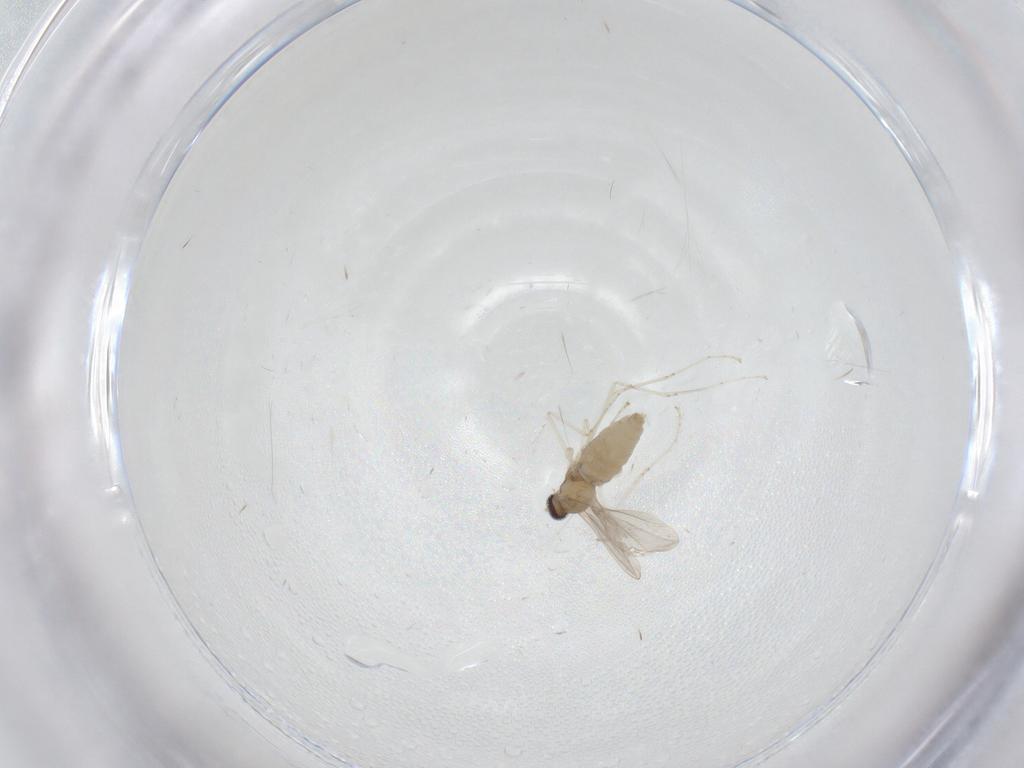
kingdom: Animalia
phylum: Arthropoda
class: Insecta
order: Diptera
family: Cecidomyiidae
